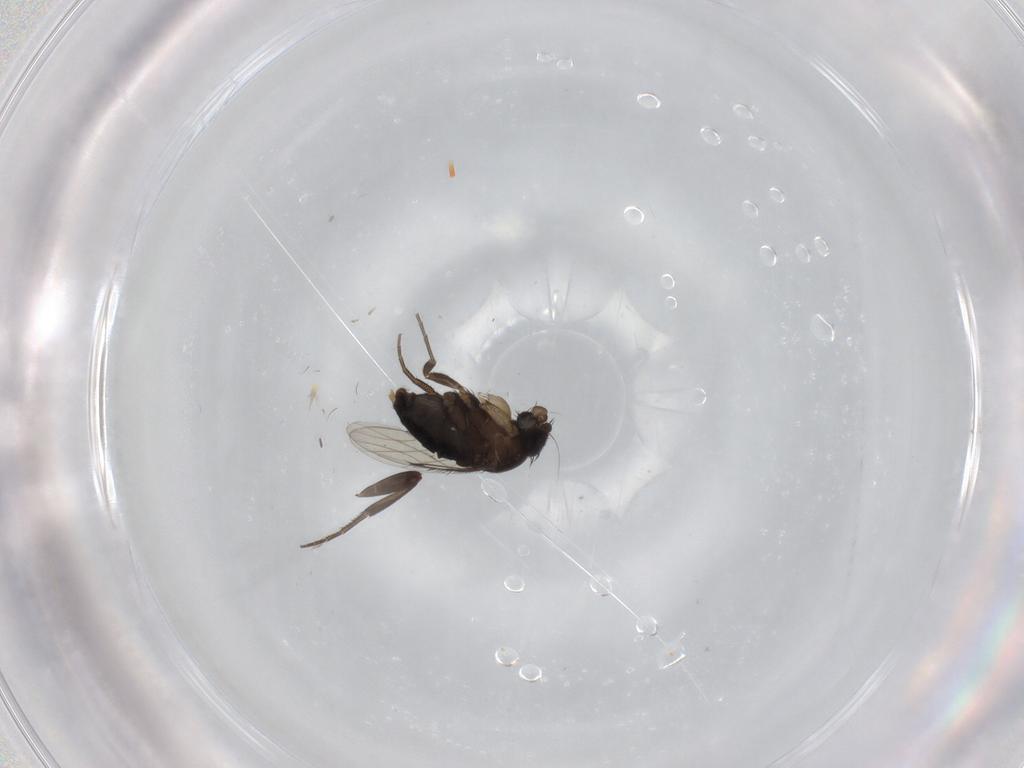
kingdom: Animalia
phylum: Arthropoda
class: Insecta
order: Diptera
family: Phoridae
